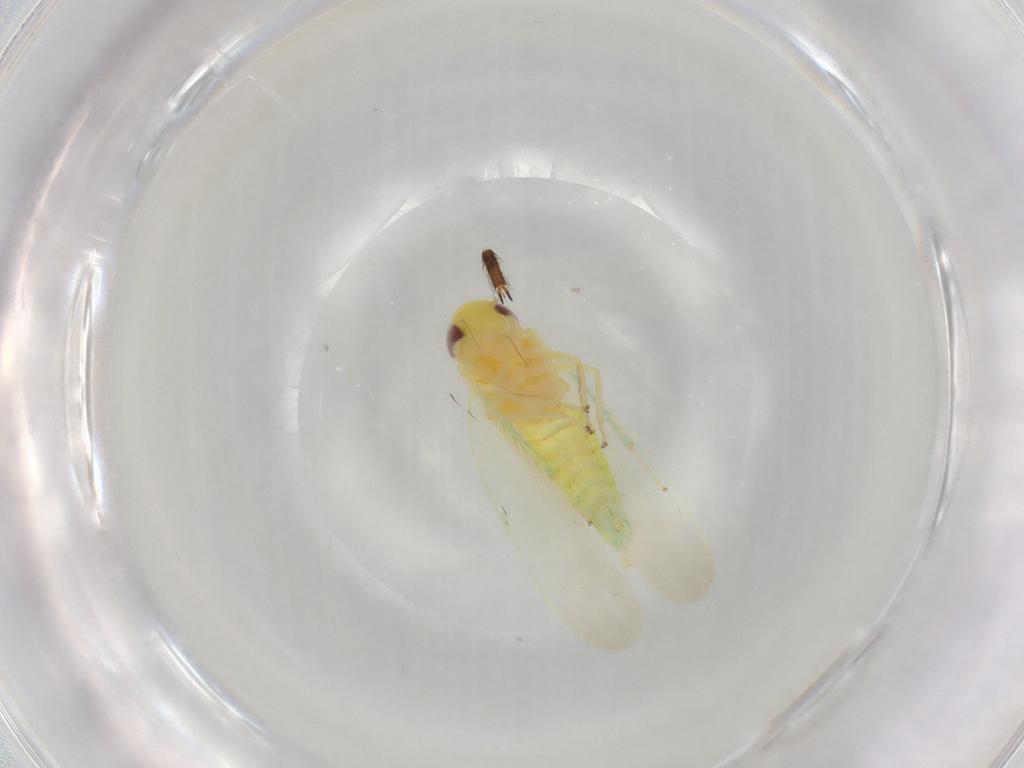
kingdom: Animalia
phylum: Arthropoda
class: Insecta
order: Hemiptera
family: Cicadellidae
